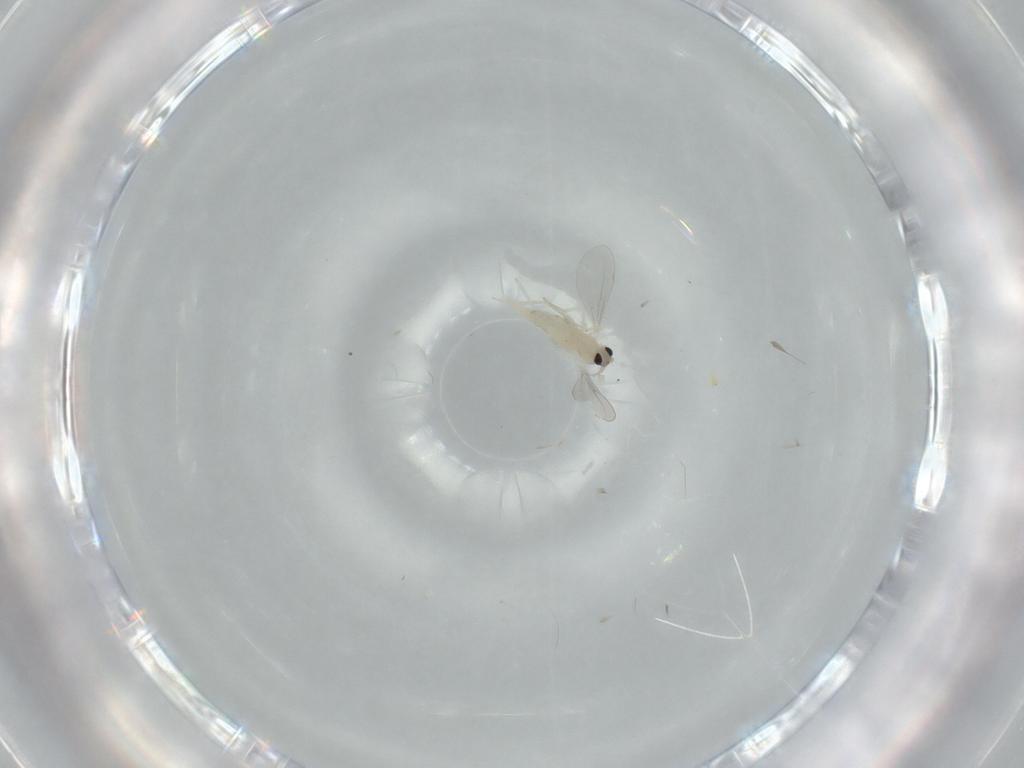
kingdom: Animalia
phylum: Arthropoda
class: Insecta
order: Diptera
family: Cecidomyiidae
